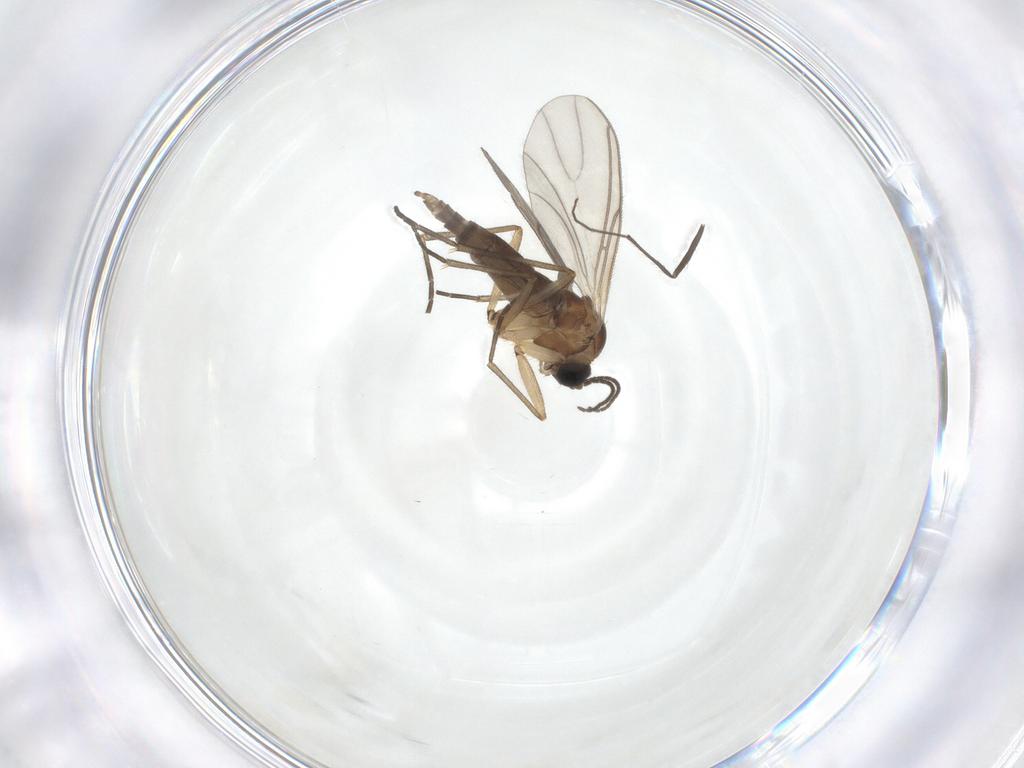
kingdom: Animalia
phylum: Arthropoda
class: Insecta
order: Diptera
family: Sciaridae
